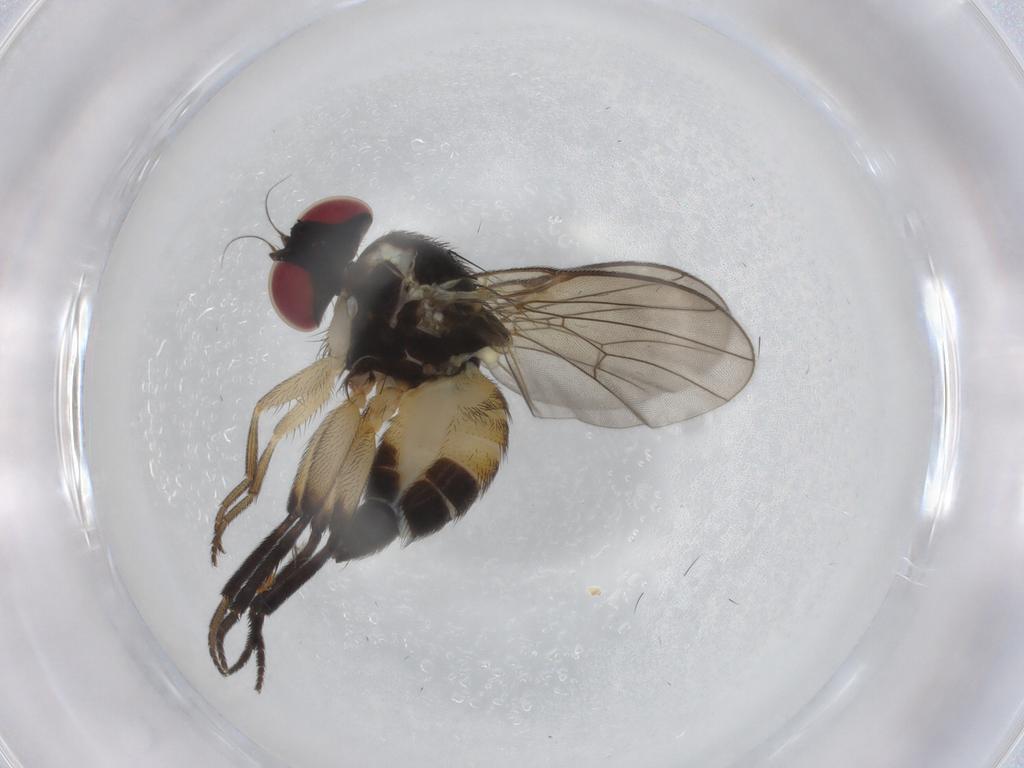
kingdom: Animalia
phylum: Arthropoda
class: Insecta
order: Diptera
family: Agromyzidae
